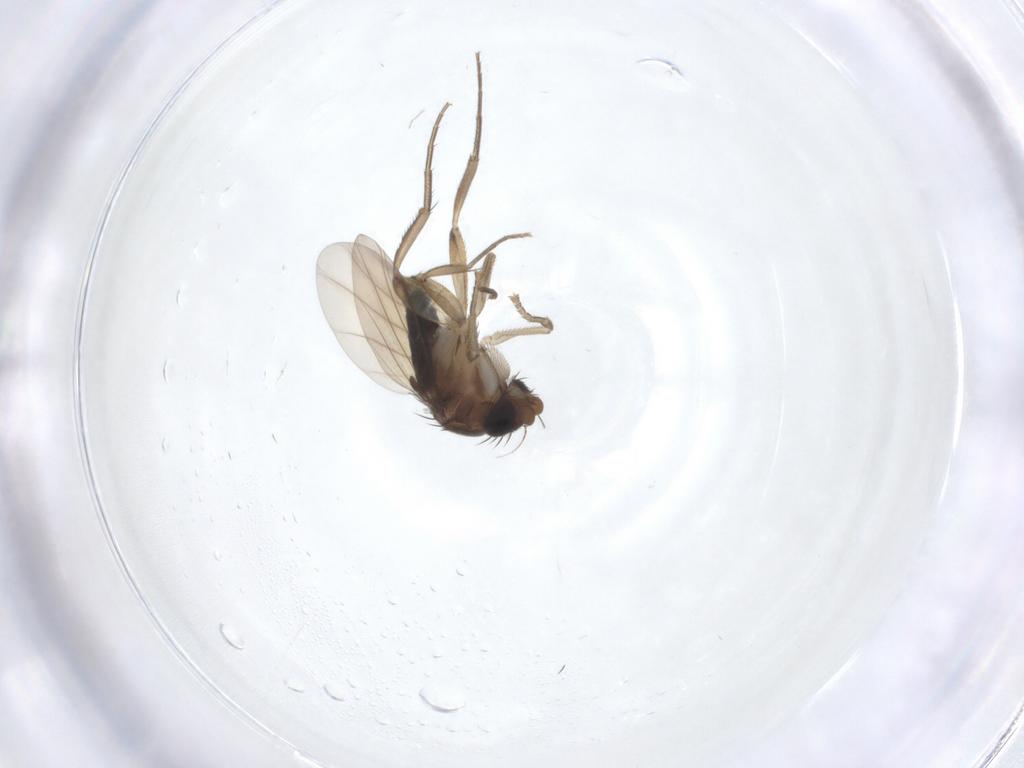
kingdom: Animalia
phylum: Arthropoda
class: Insecta
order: Diptera
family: Phoridae
